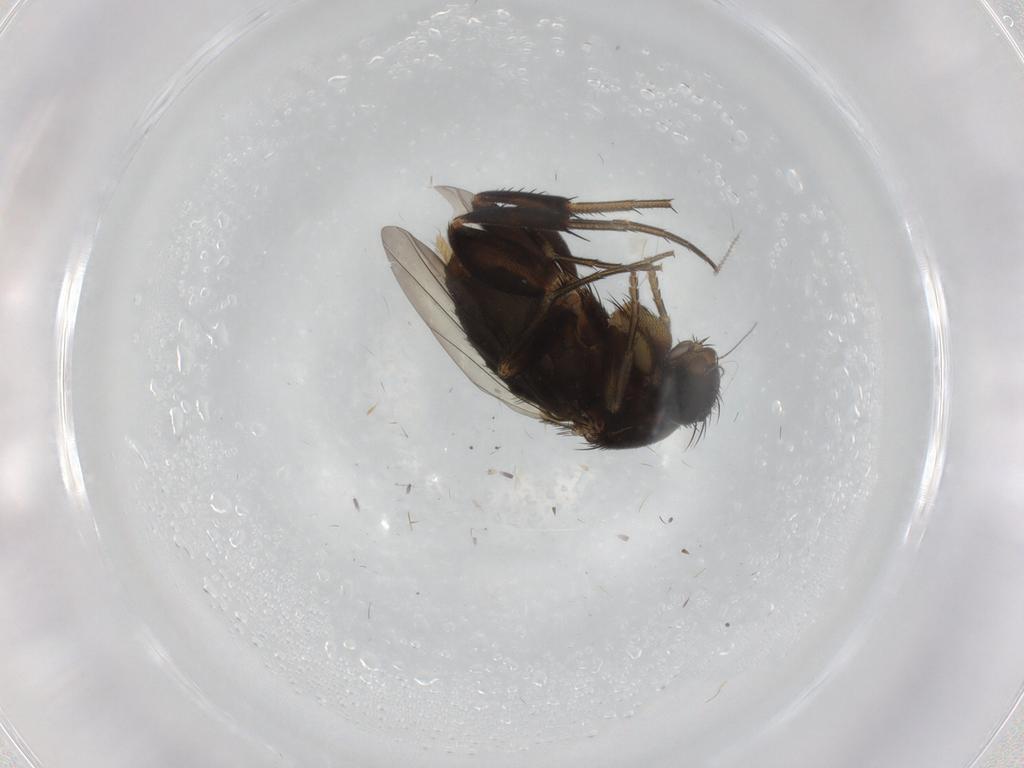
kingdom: Animalia
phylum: Arthropoda
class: Insecta
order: Diptera
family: Phoridae
